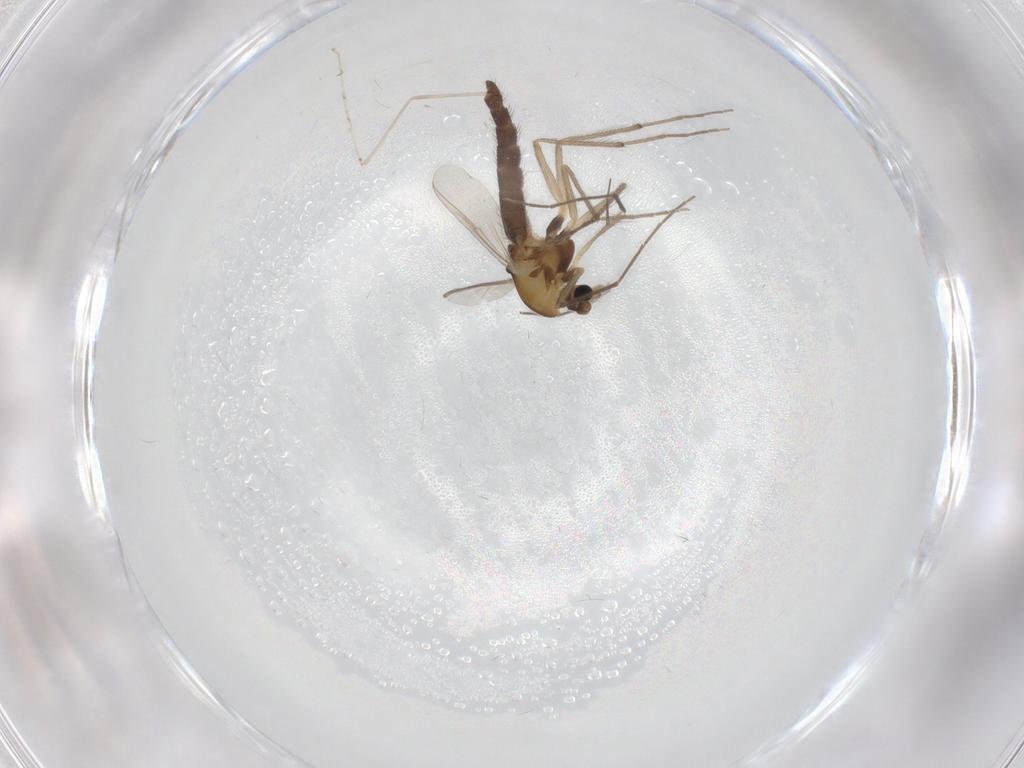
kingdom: Animalia
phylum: Arthropoda
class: Insecta
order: Diptera
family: Chironomidae
